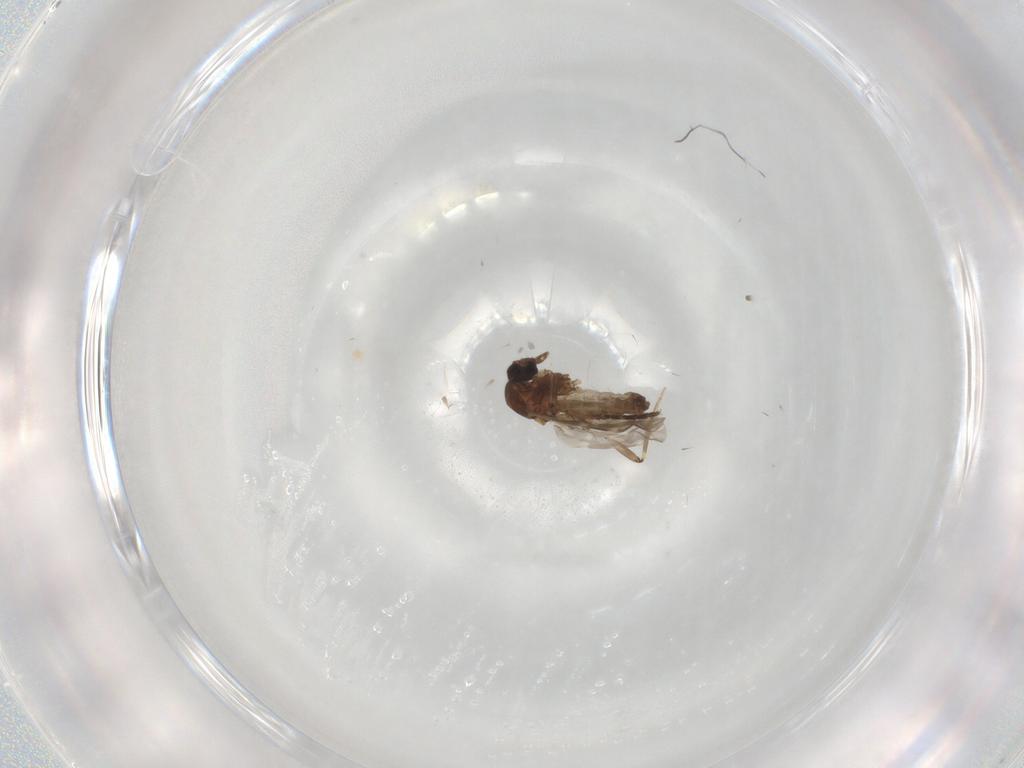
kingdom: Animalia
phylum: Arthropoda
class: Insecta
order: Diptera
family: Ceratopogonidae
